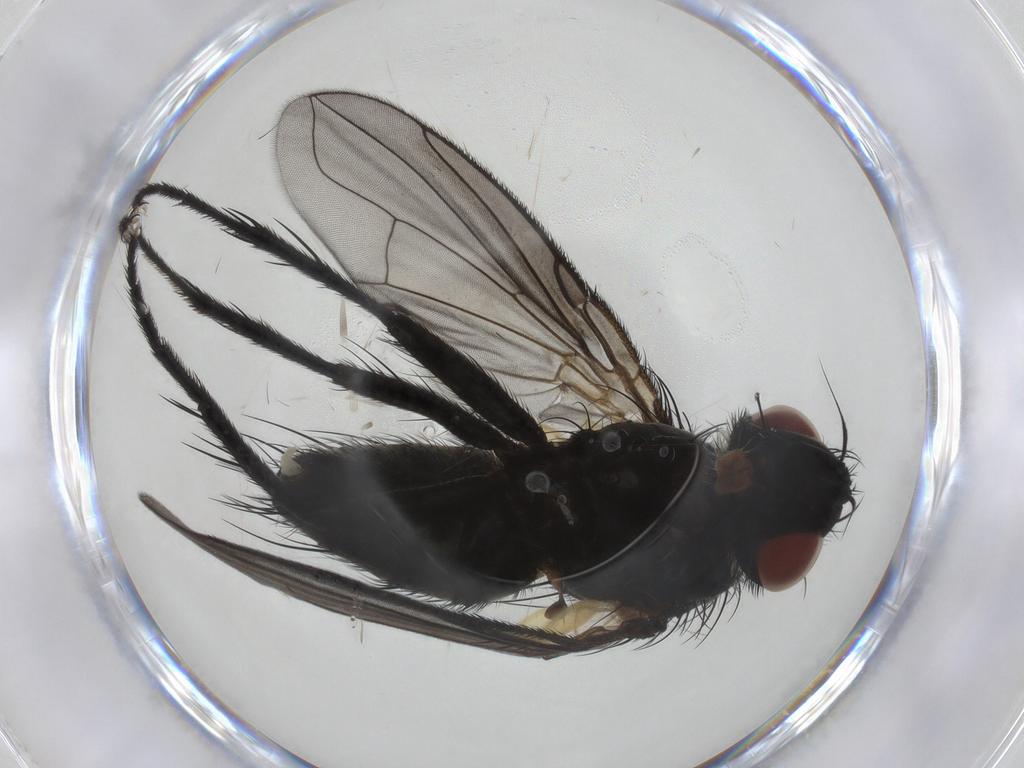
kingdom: Animalia
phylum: Arthropoda
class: Insecta
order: Diptera
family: Tachinidae
